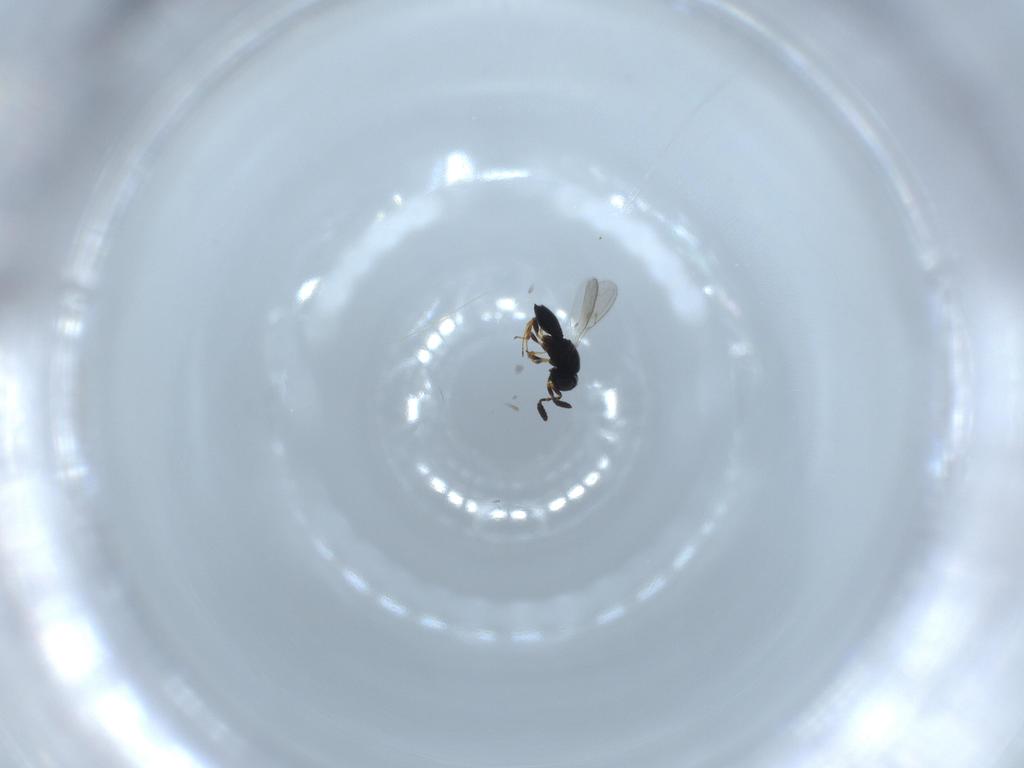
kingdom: Animalia
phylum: Arthropoda
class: Insecta
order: Hymenoptera
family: Scelionidae
